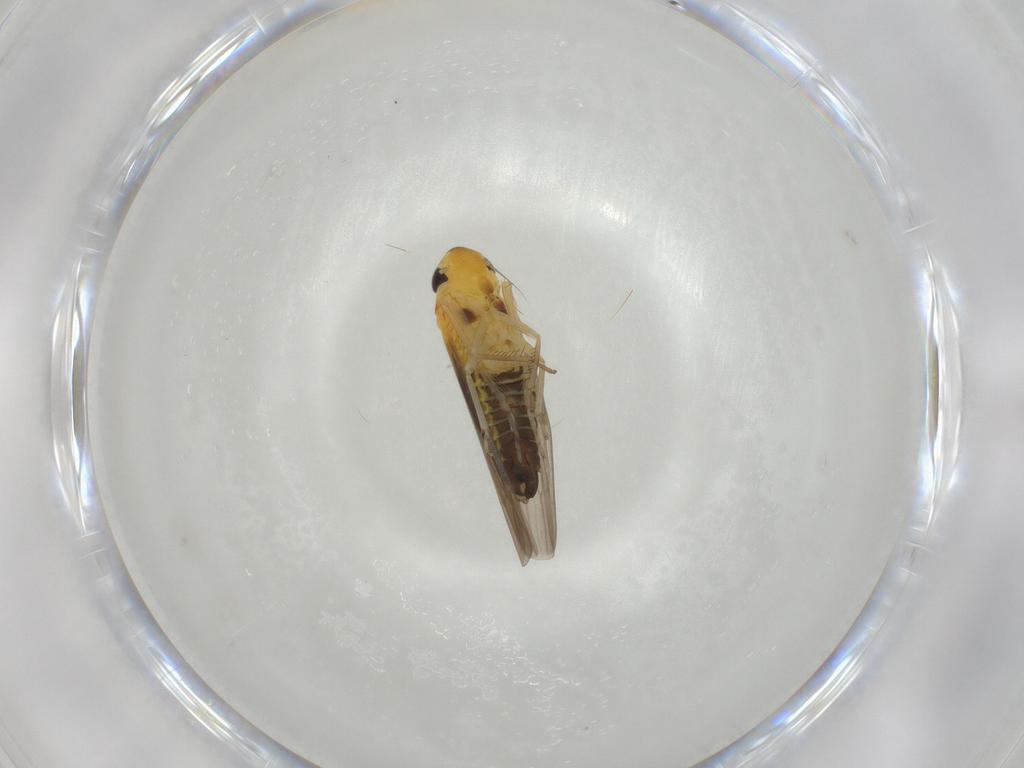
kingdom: Animalia
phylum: Arthropoda
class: Insecta
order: Hemiptera
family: Cicadellidae
